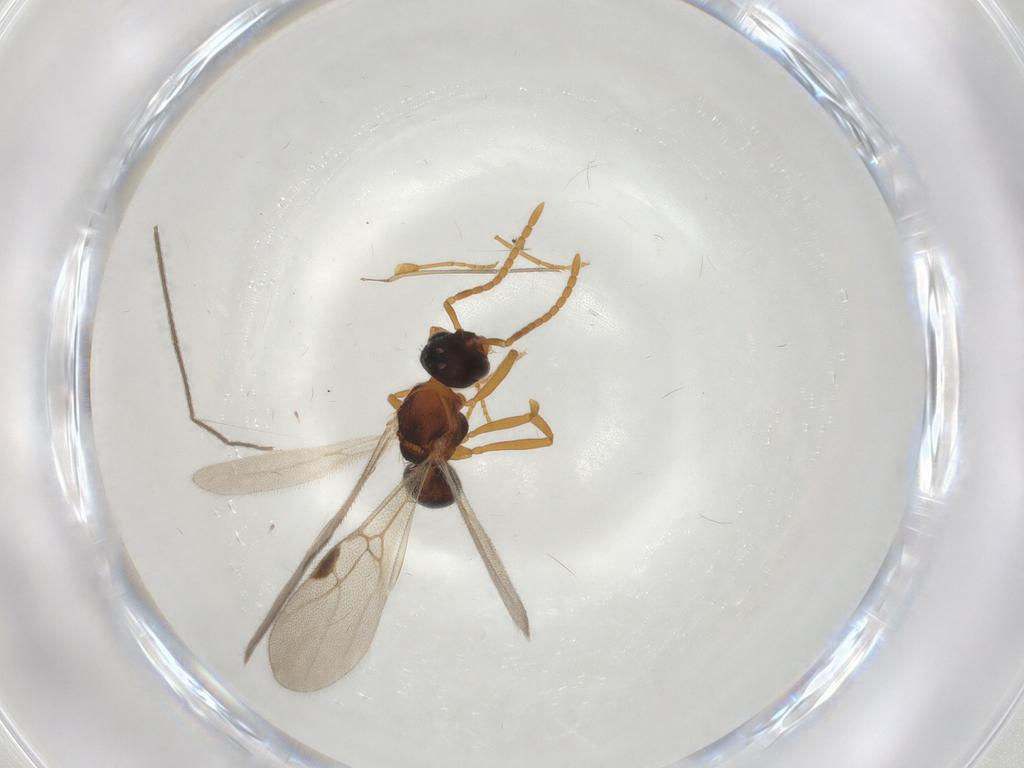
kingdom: Animalia
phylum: Arthropoda
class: Insecta
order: Hymenoptera
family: Formicidae
